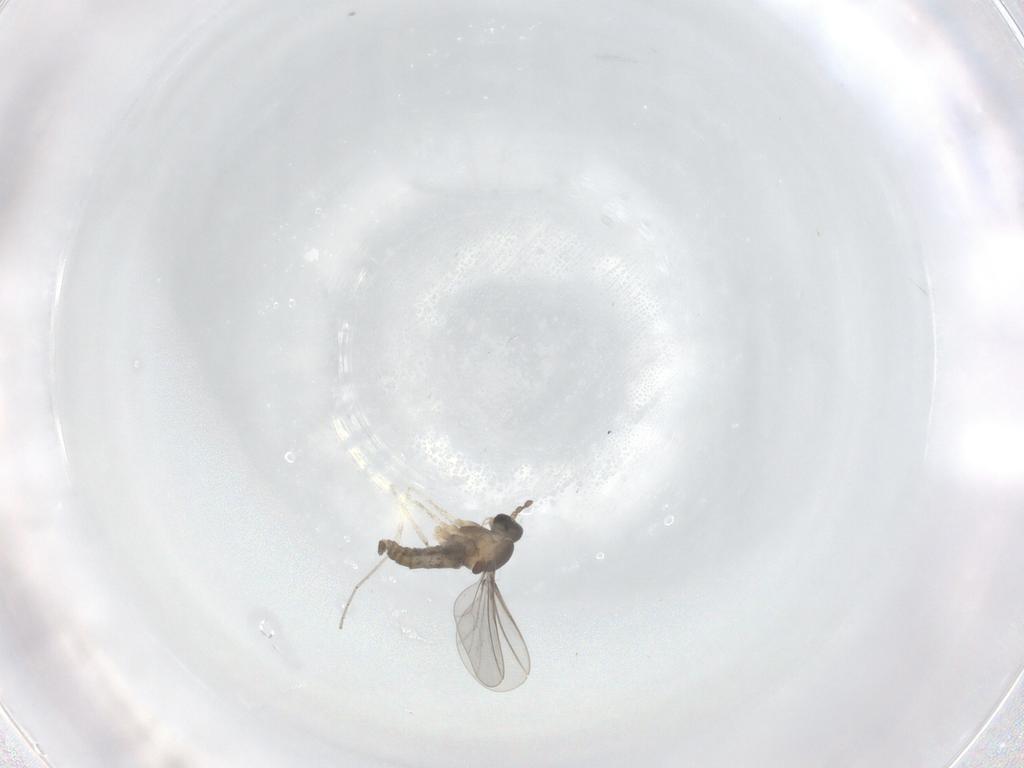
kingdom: Animalia
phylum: Arthropoda
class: Insecta
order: Diptera
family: Cecidomyiidae
